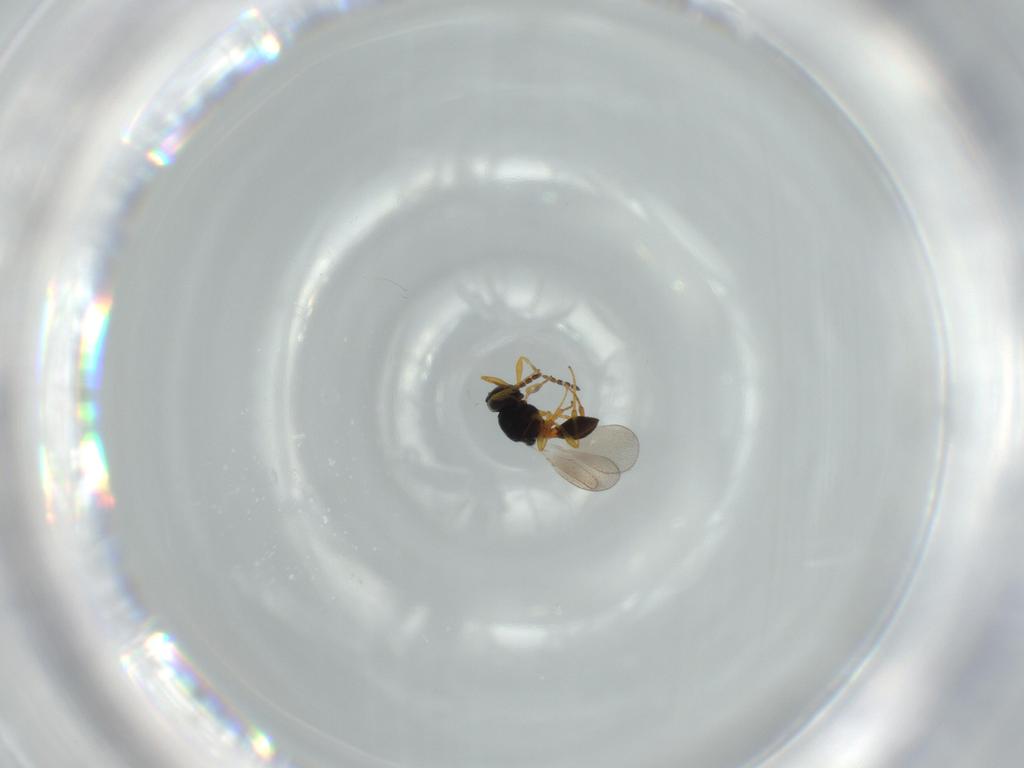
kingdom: Animalia
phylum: Arthropoda
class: Insecta
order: Hymenoptera
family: Platygastridae
